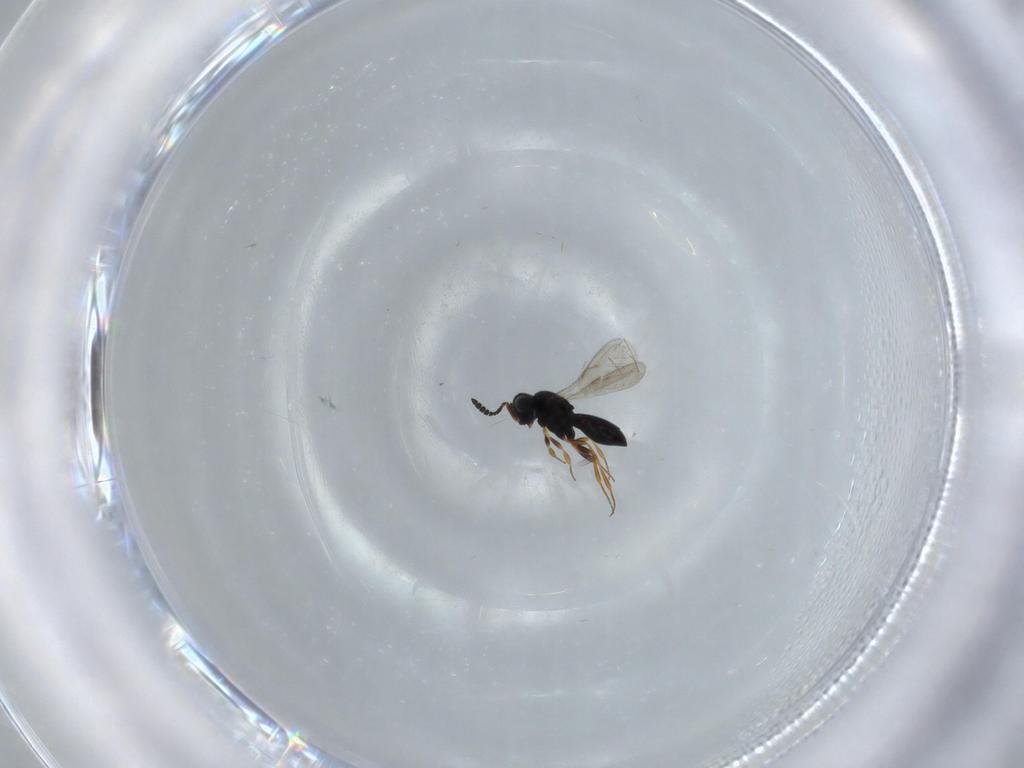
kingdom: Animalia
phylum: Arthropoda
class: Insecta
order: Hymenoptera
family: Scelionidae
